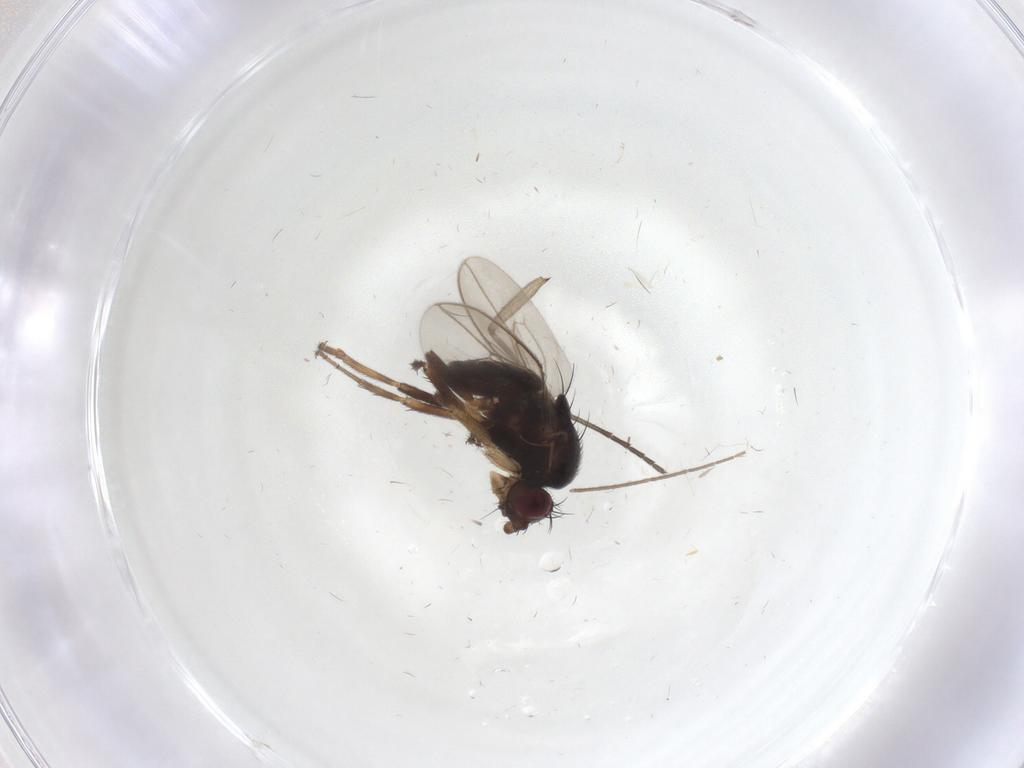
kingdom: Animalia
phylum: Arthropoda
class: Insecta
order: Diptera
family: Sphaeroceridae
